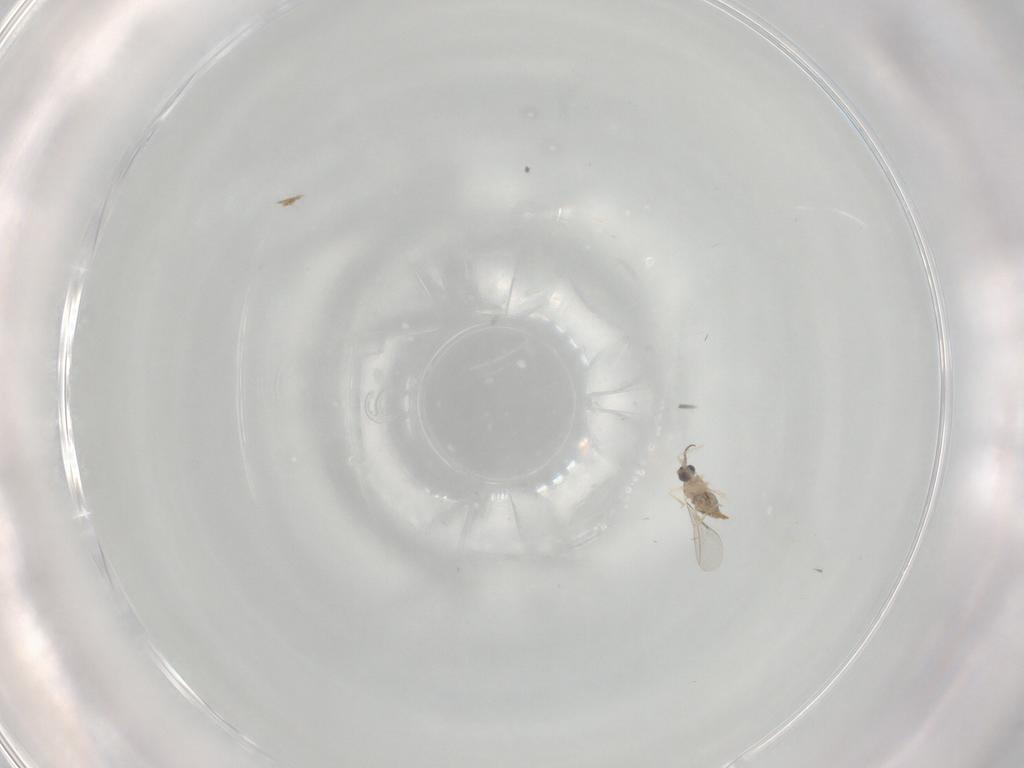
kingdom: Animalia
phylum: Arthropoda
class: Insecta
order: Diptera
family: Cecidomyiidae
